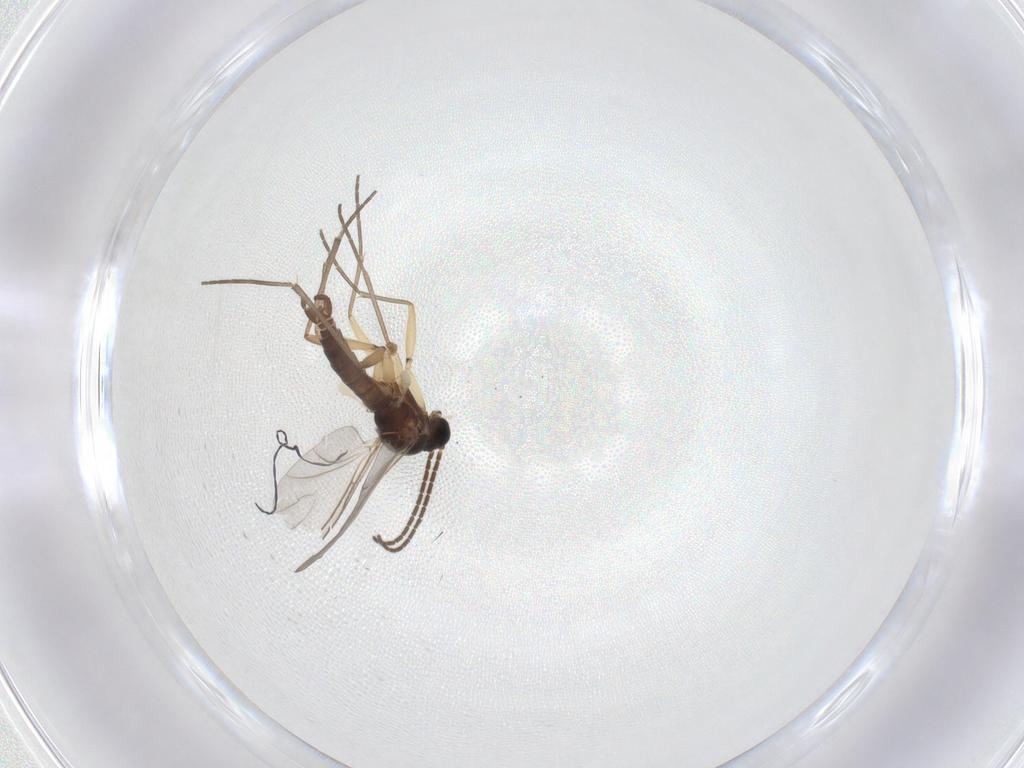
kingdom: Animalia
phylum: Arthropoda
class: Insecta
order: Diptera
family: Sciaridae
